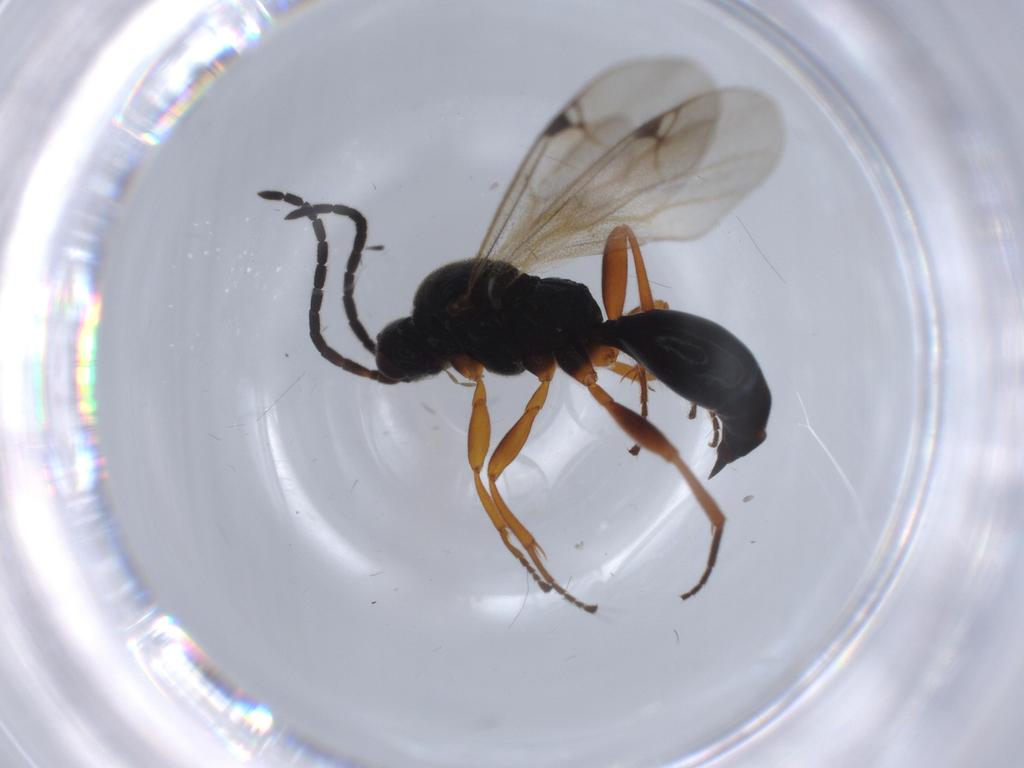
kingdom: Animalia
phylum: Arthropoda
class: Insecta
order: Hymenoptera
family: Braconidae
